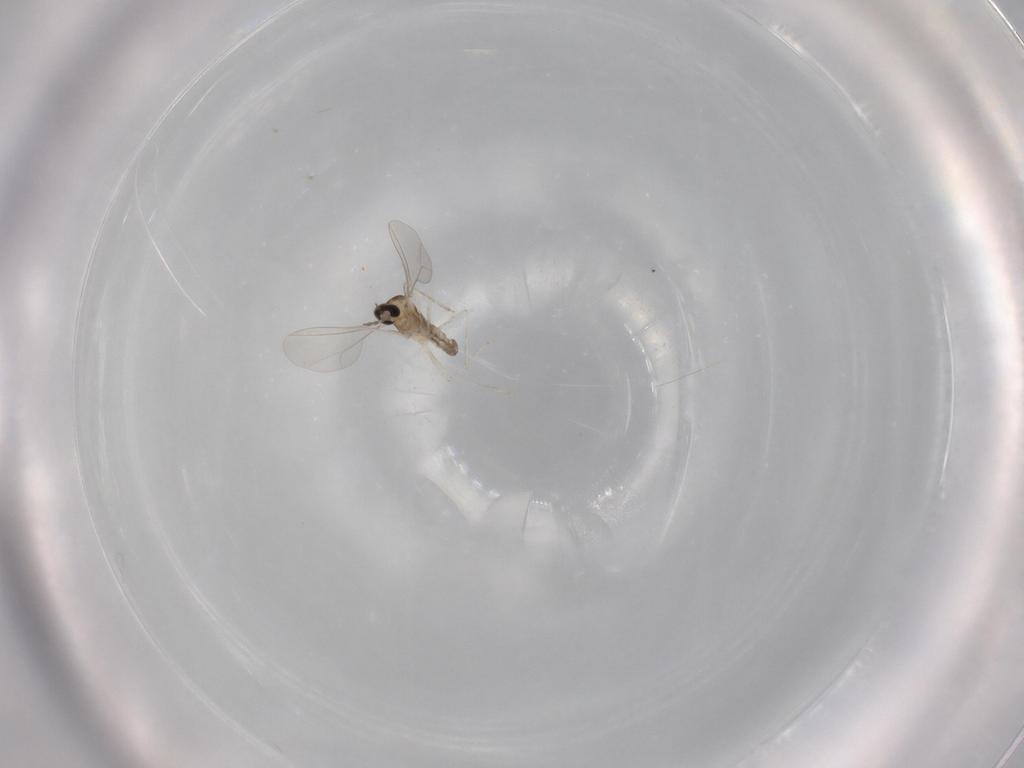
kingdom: Animalia
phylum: Arthropoda
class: Insecta
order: Diptera
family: Cecidomyiidae
